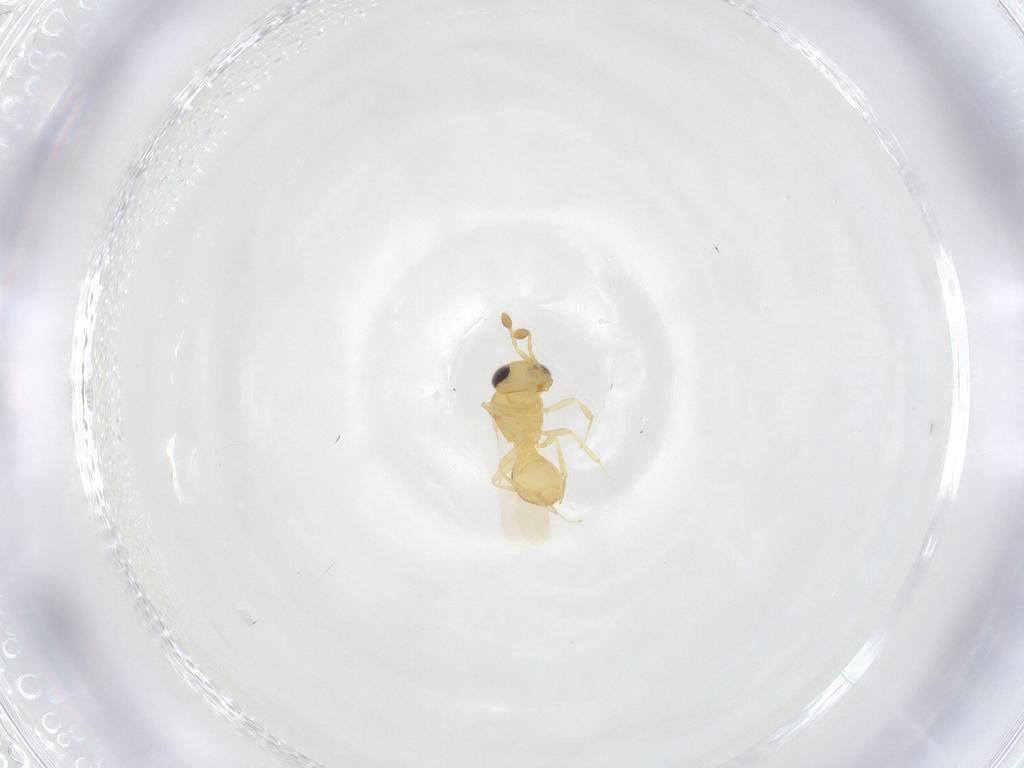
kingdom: Animalia
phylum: Arthropoda
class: Insecta
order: Hymenoptera
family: Scelionidae
